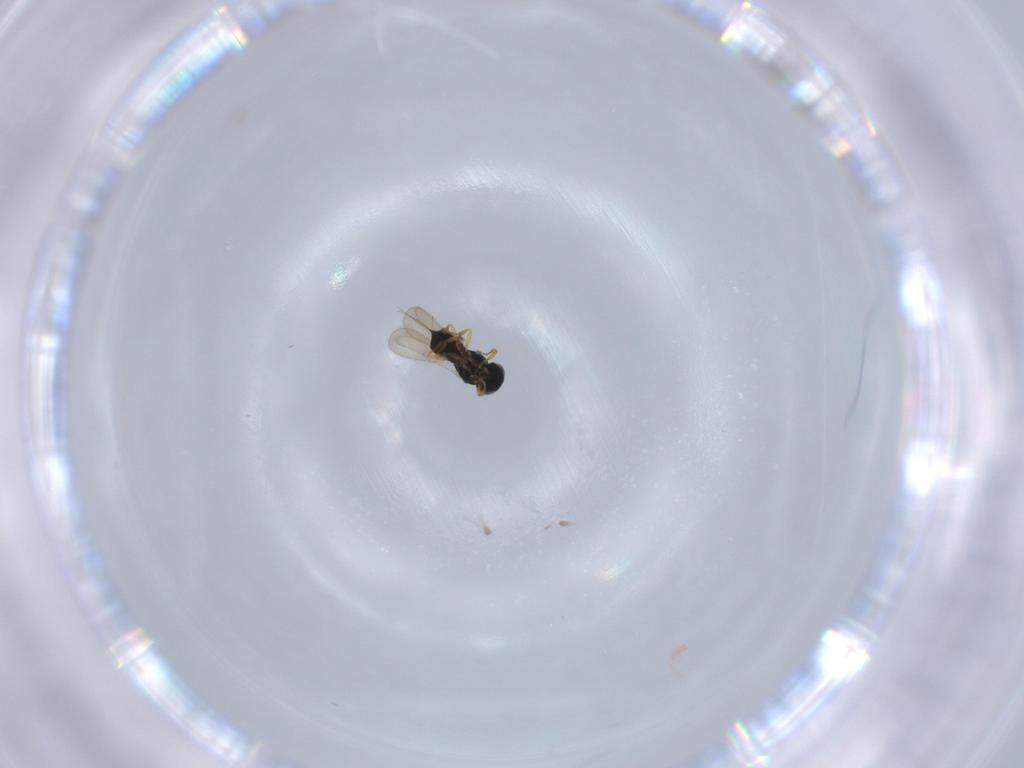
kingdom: Animalia
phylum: Arthropoda
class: Insecta
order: Hymenoptera
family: Scelionidae
